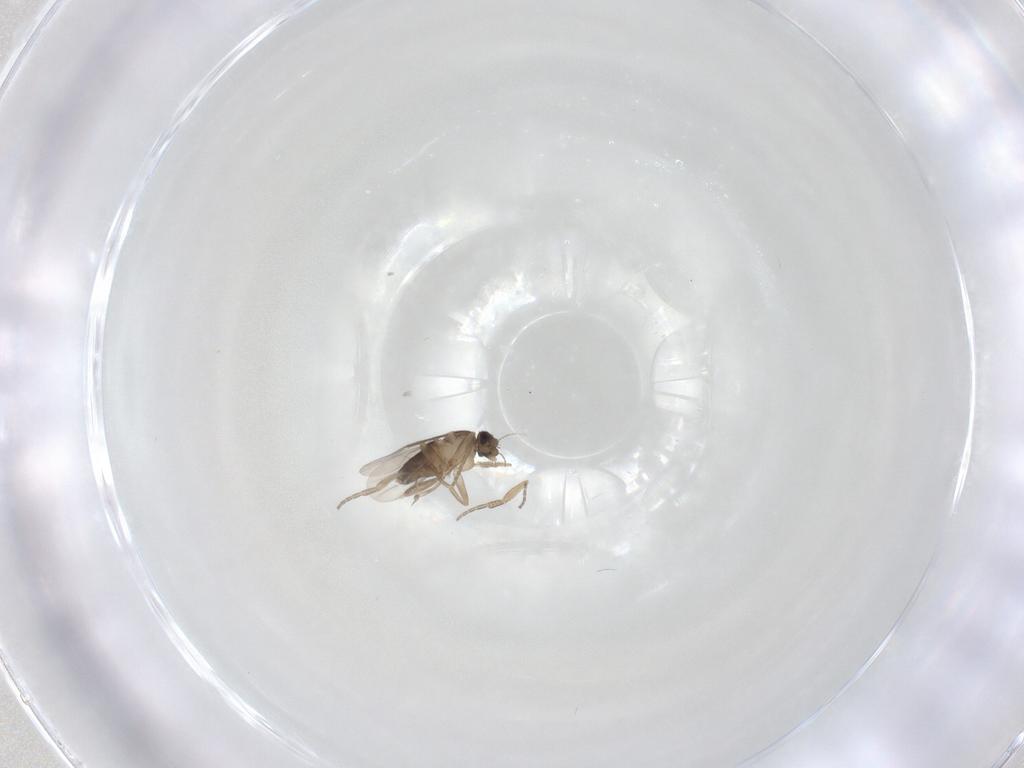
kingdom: Animalia
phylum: Arthropoda
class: Insecta
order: Diptera
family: Phoridae
